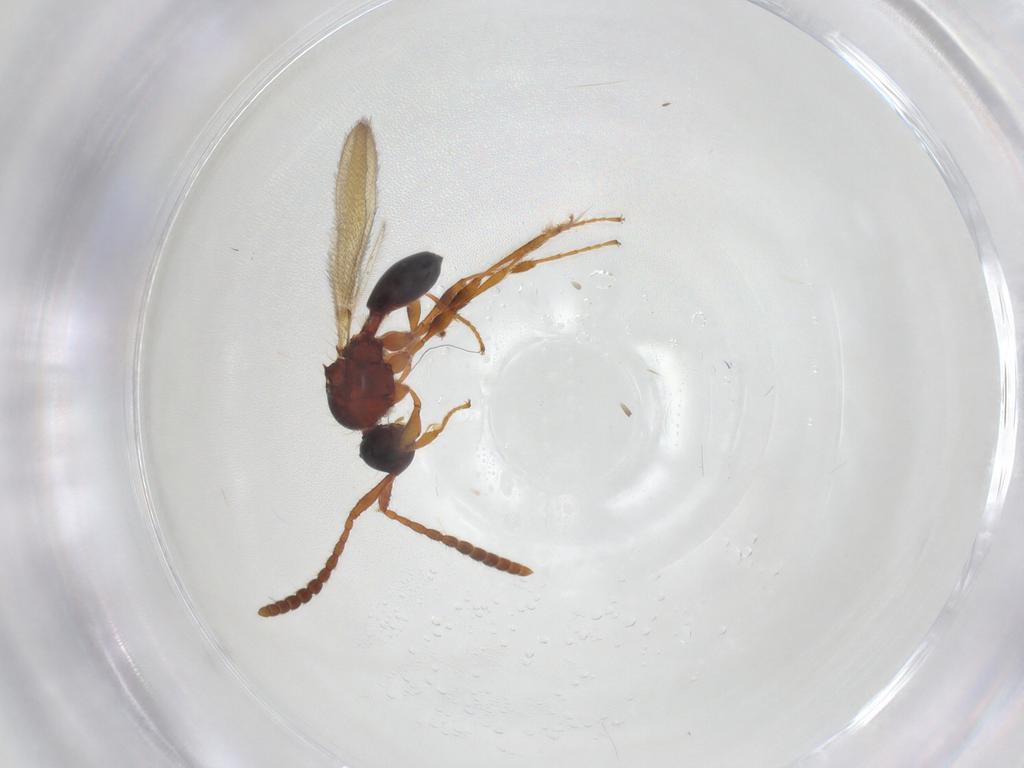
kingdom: Animalia
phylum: Arthropoda
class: Insecta
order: Hymenoptera
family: Diapriidae
